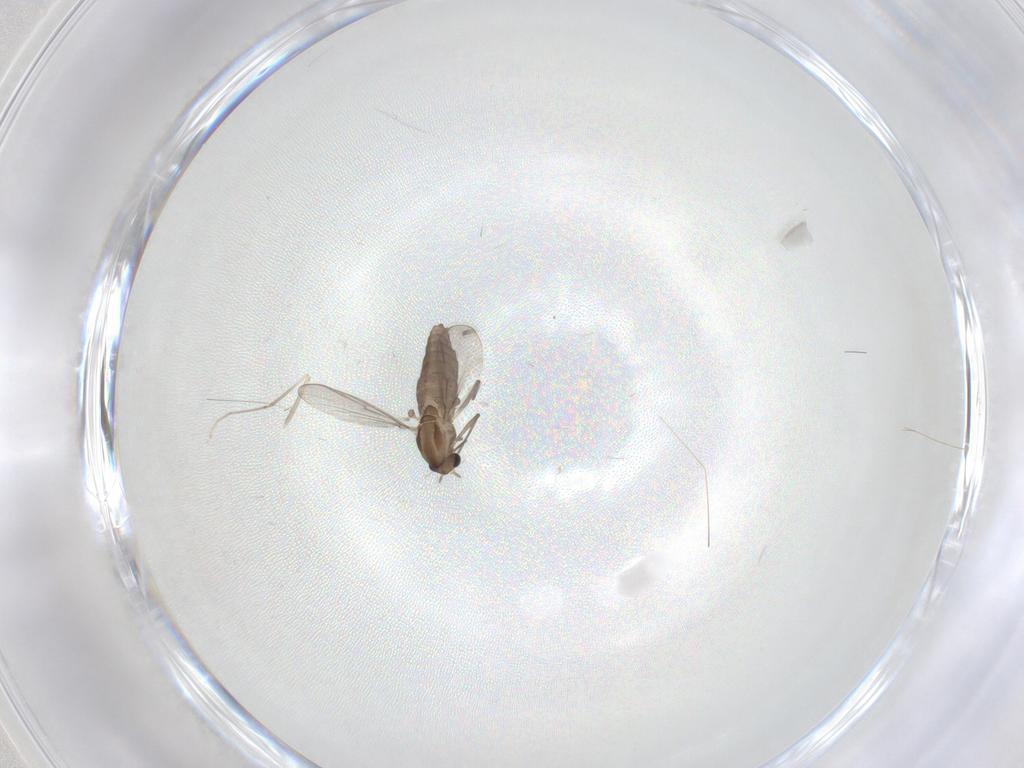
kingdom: Animalia
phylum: Arthropoda
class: Insecta
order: Diptera
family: Chironomidae
